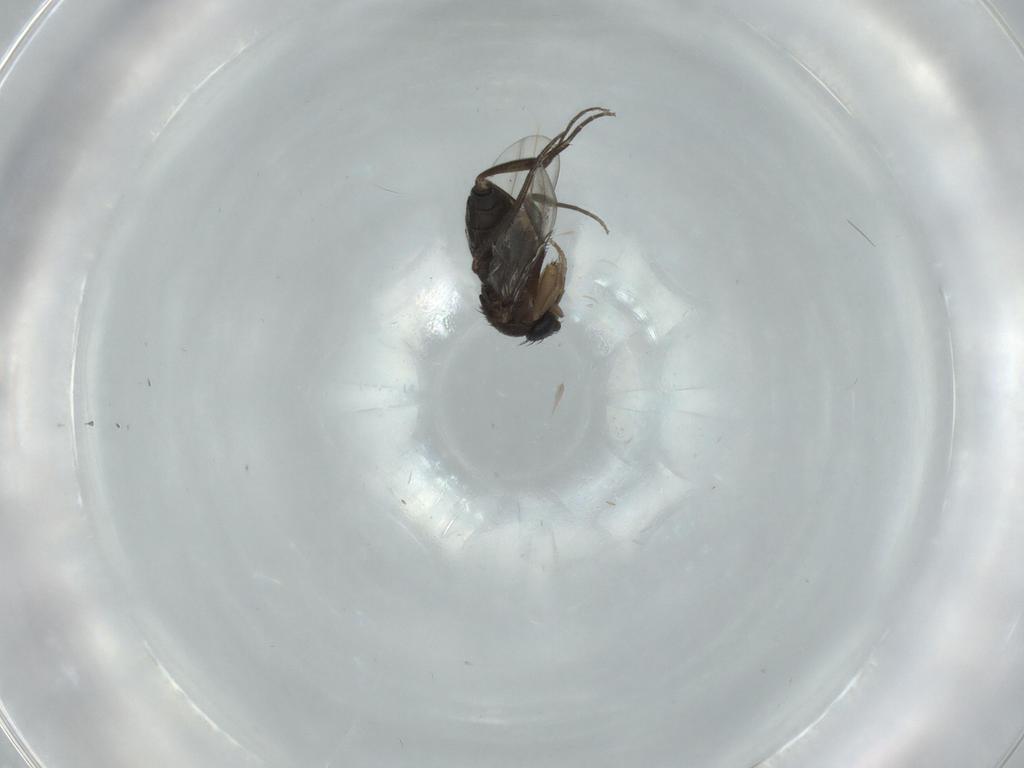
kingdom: Animalia
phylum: Arthropoda
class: Insecta
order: Diptera
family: Phoridae
